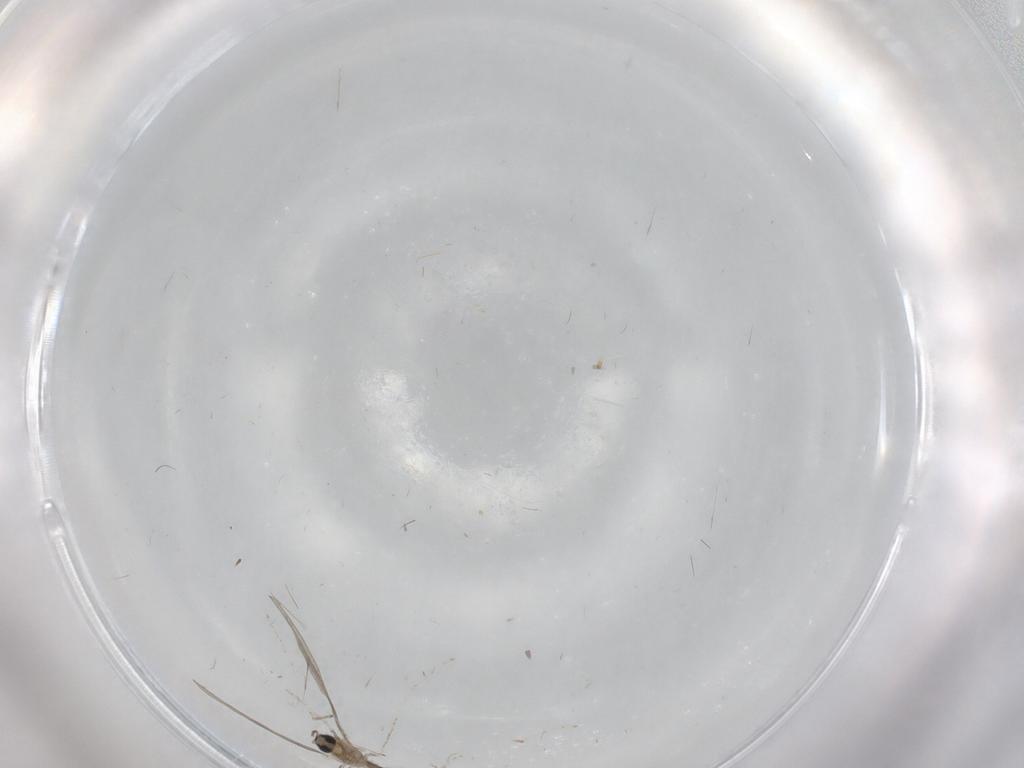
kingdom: Animalia
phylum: Arthropoda
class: Insecta
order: Diptera
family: Cecidomyiidae
